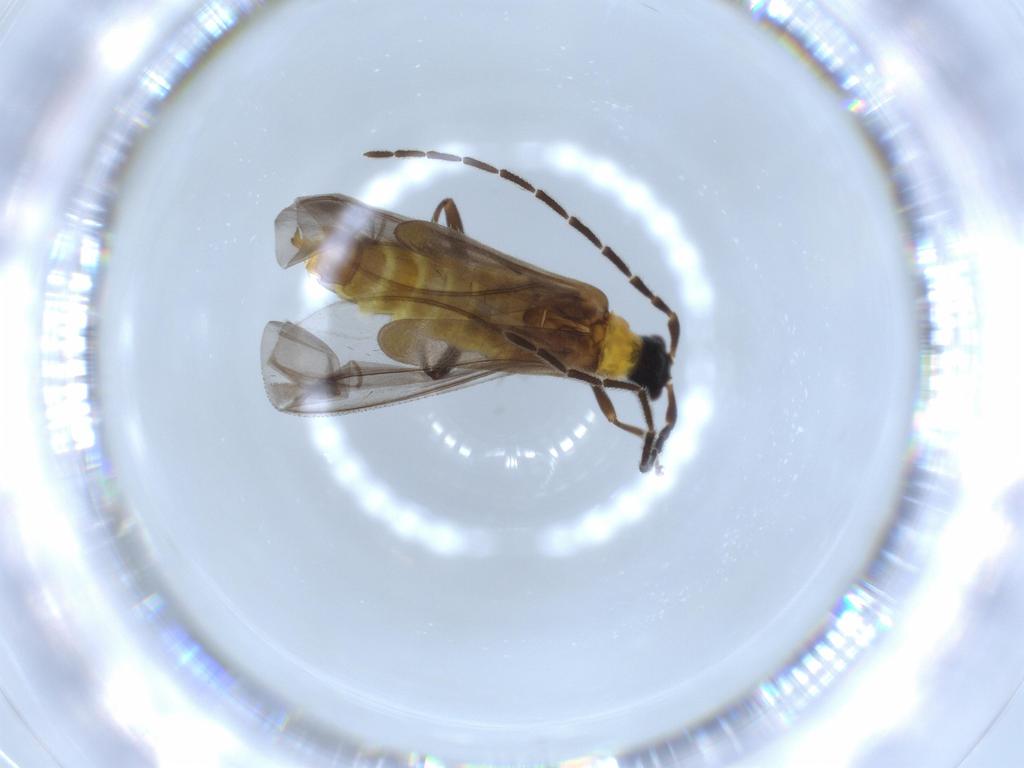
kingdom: Animalia
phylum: Arthropoda
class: Insecta
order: Coleoptera
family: Cantharidae
